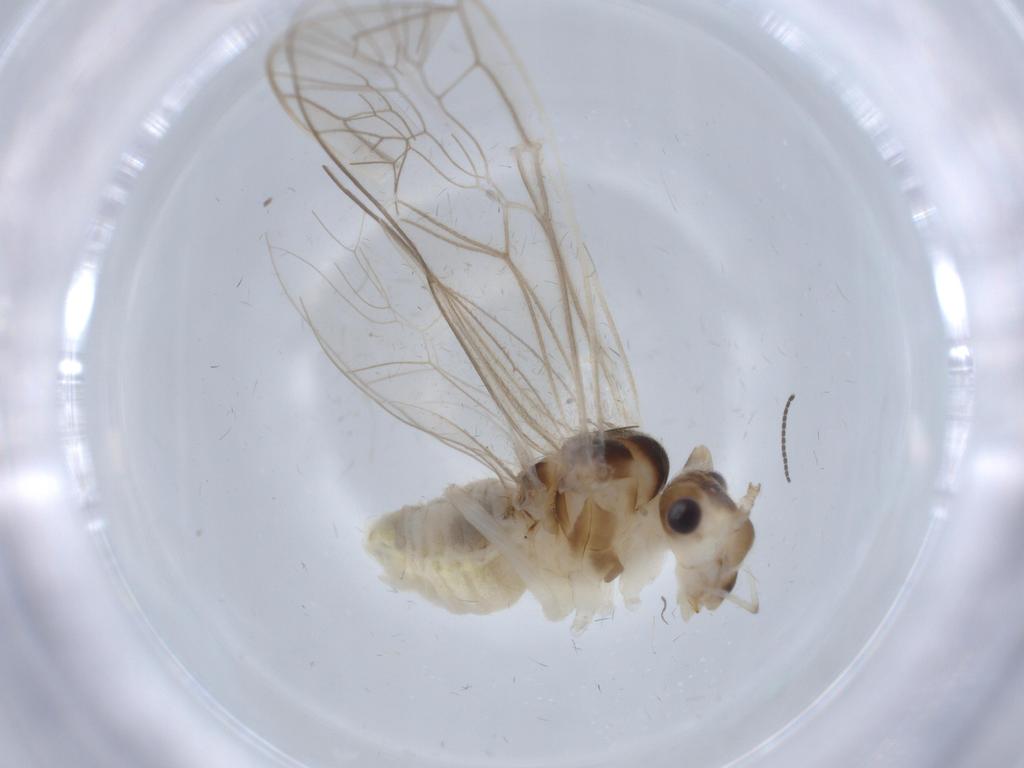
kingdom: Animalia
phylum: Arthropoda
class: Insecta
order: Psocodea
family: Stenopsocidae
